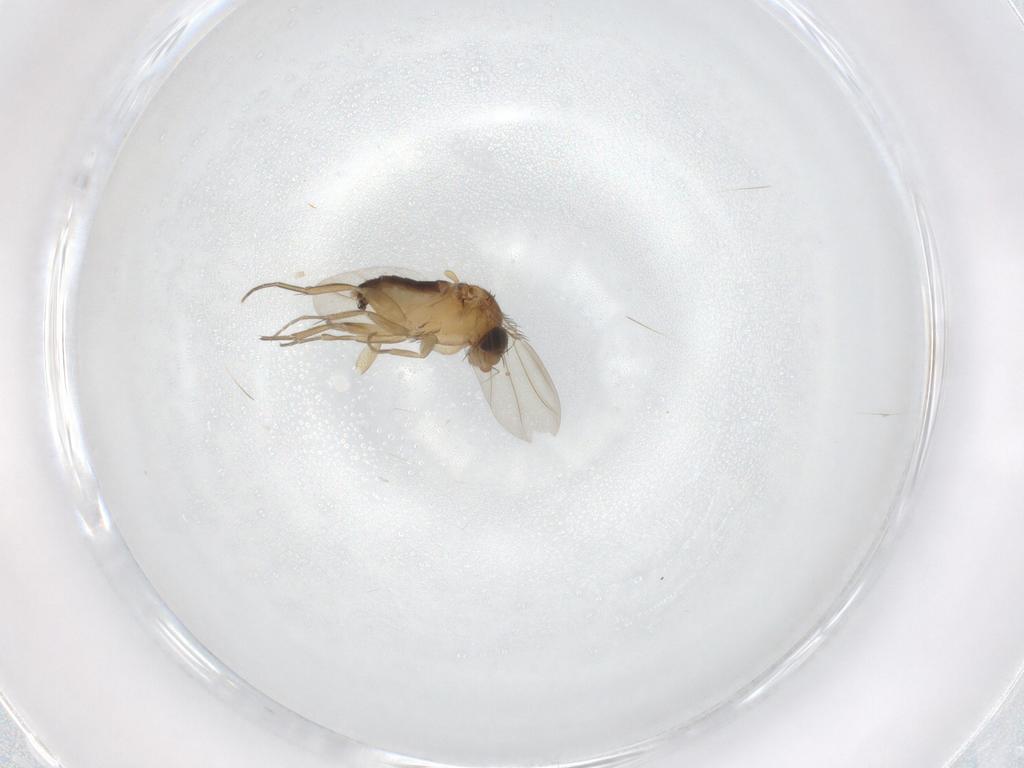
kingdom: Animalia
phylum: Arthropoda
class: Insecta
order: Diptera
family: Phoridae
